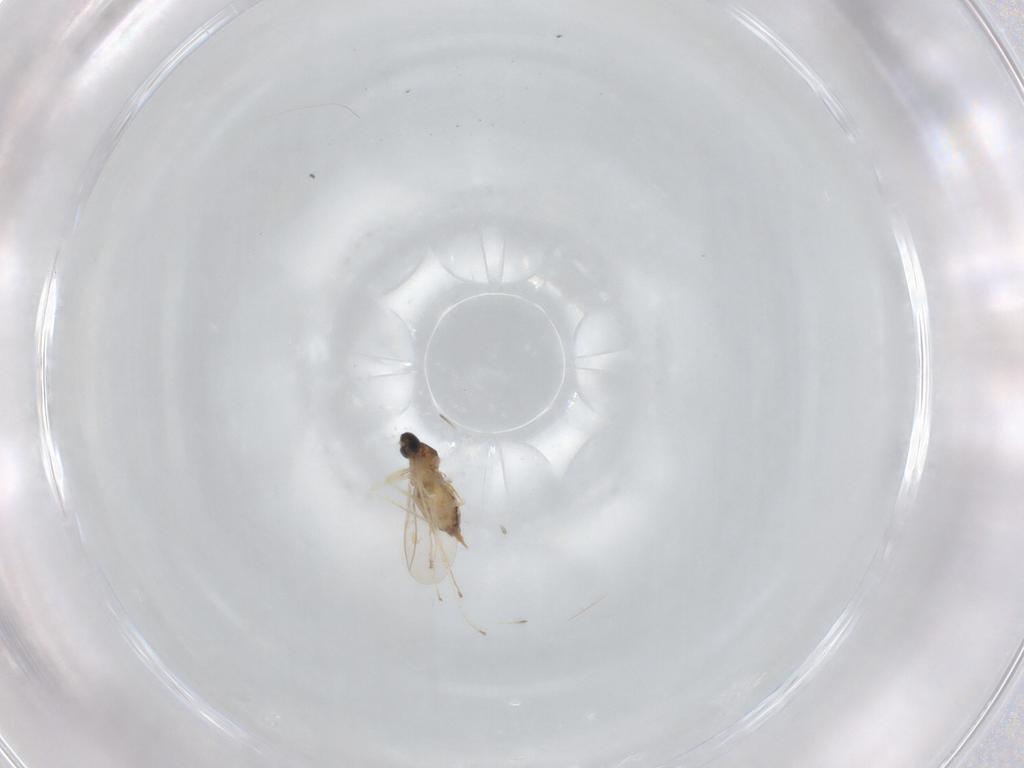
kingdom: Animalia
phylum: Arthropoda
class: Insecta
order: Diptera
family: Cecidomyiidae
